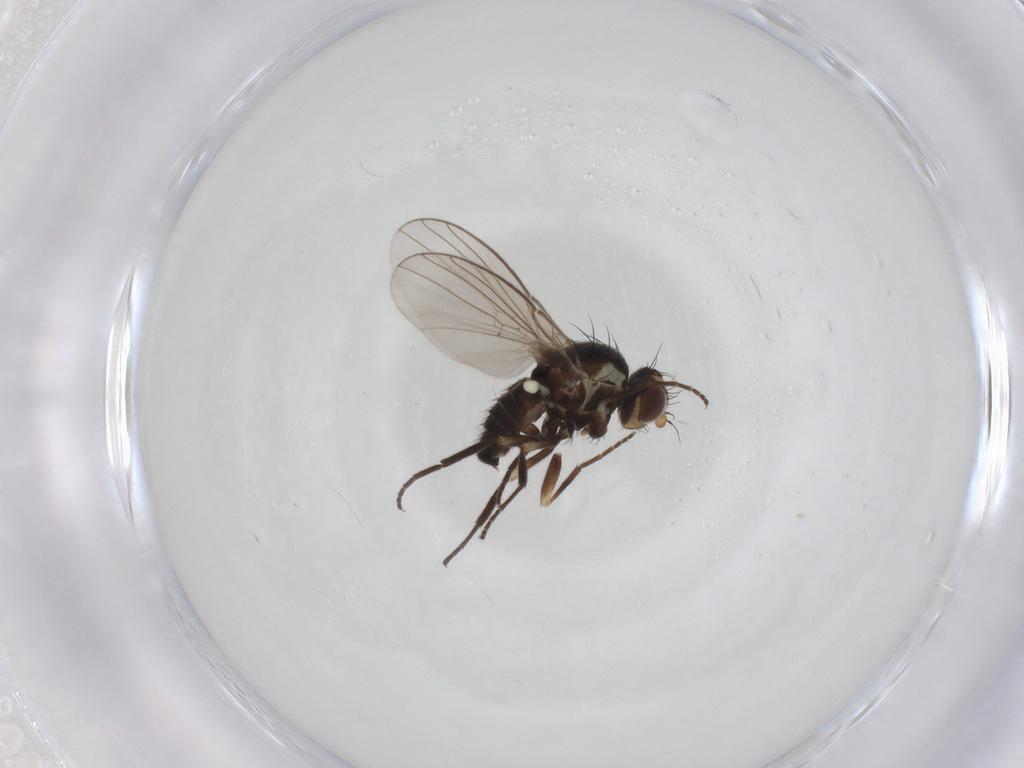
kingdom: Animalia
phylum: Arthropoda
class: Insecta
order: Diptera
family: Agromyzidae
